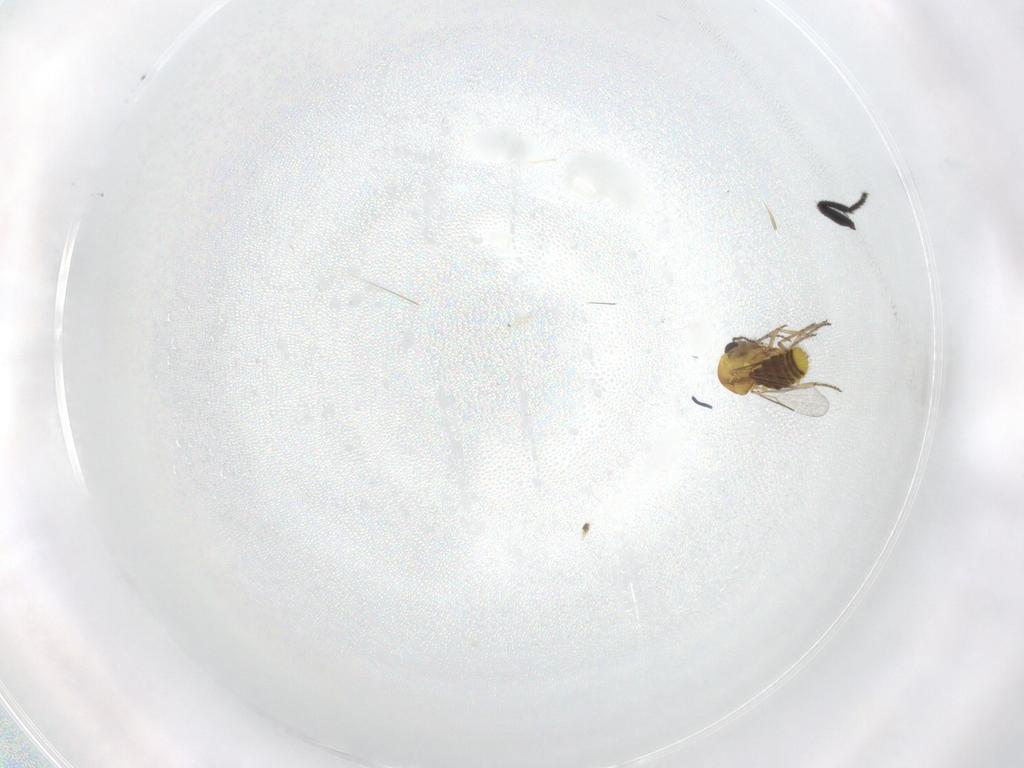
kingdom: Animalia
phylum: Arthropoda
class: Insecta
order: Diptera
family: Milichiidae
